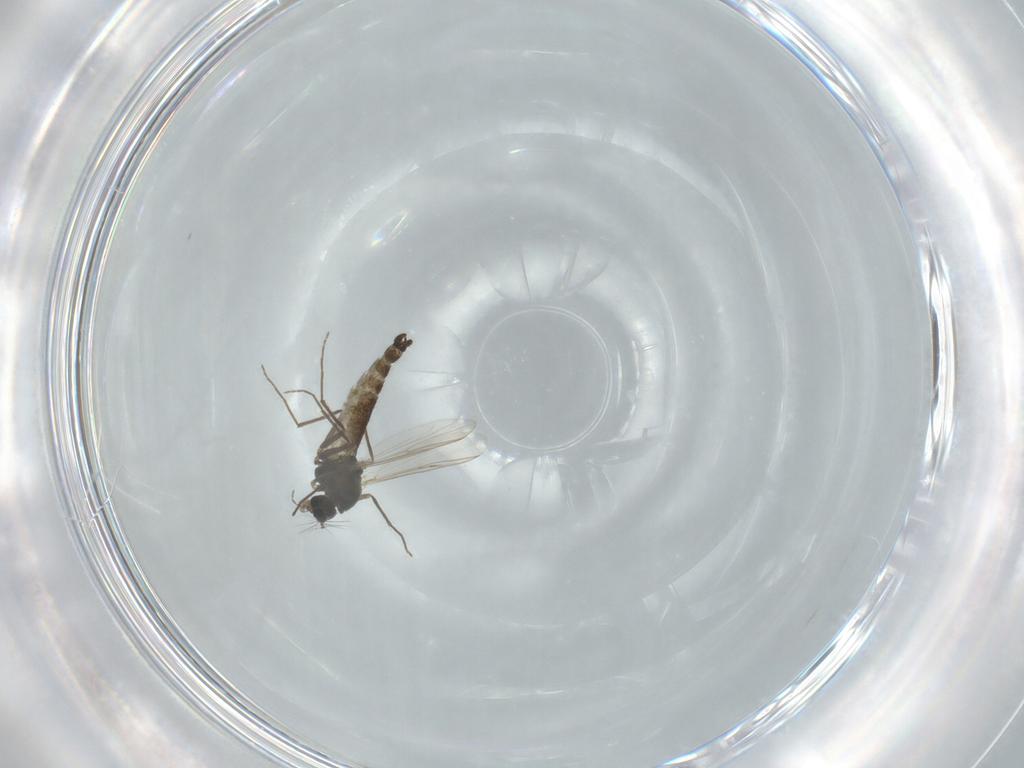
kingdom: Animalia
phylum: Arthropoda
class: Insecta
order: Diptera
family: Chironomidae
